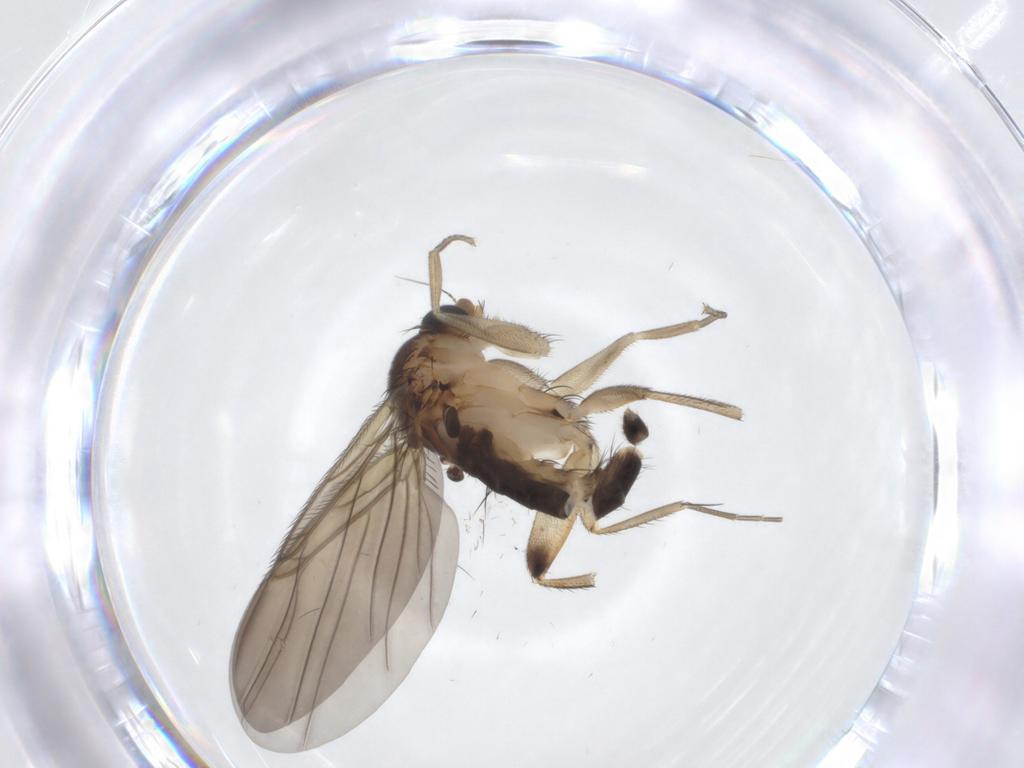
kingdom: Animalia
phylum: Arthropoda
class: Insecta
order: Diptera
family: Phoridae
